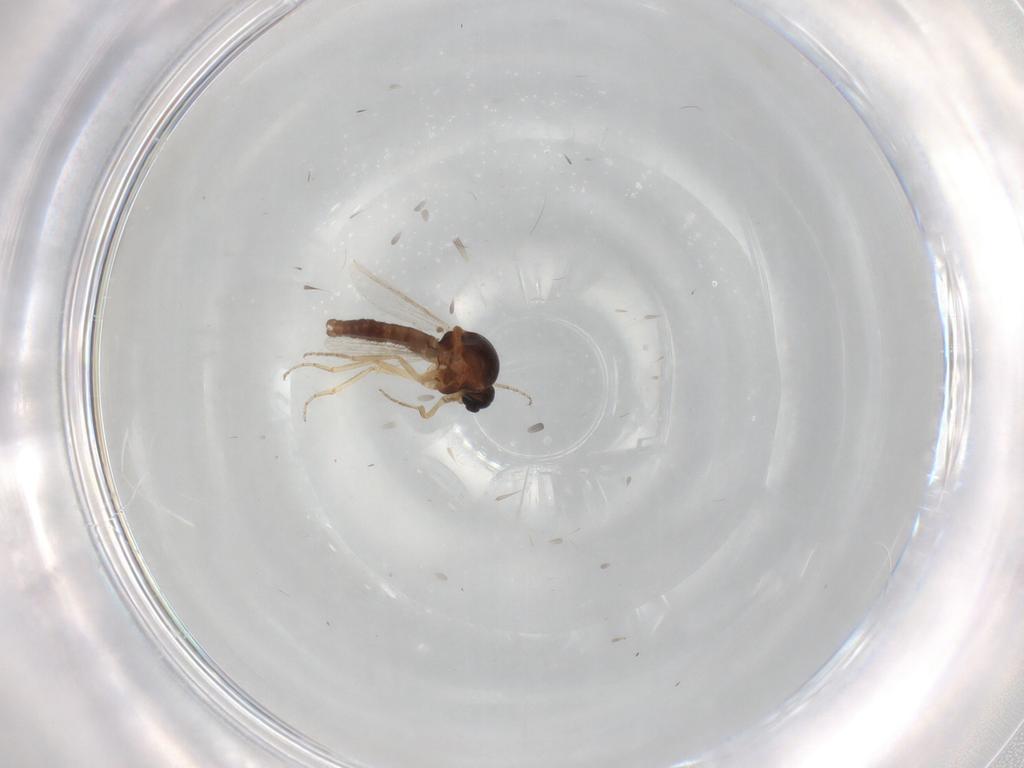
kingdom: Animalia
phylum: Arthropoda
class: Insecta
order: Diptera
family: Ceratopogonidae
